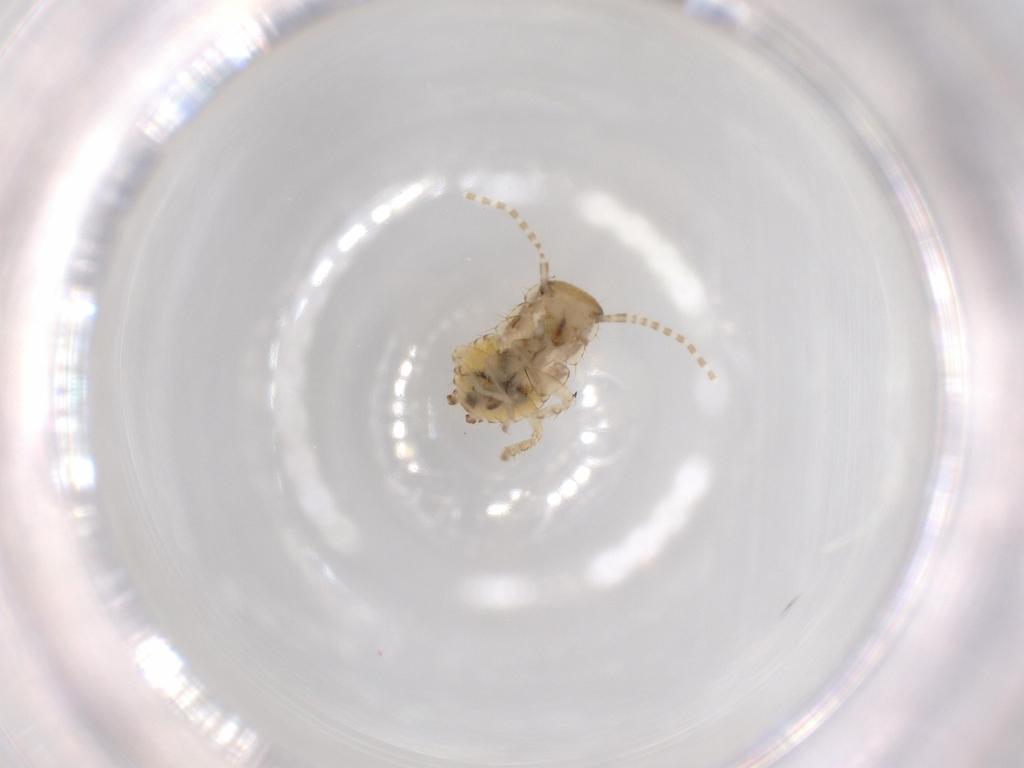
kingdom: Animalia
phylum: Arthropoda
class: Insecta
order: Blattodea
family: Ectobiidae
